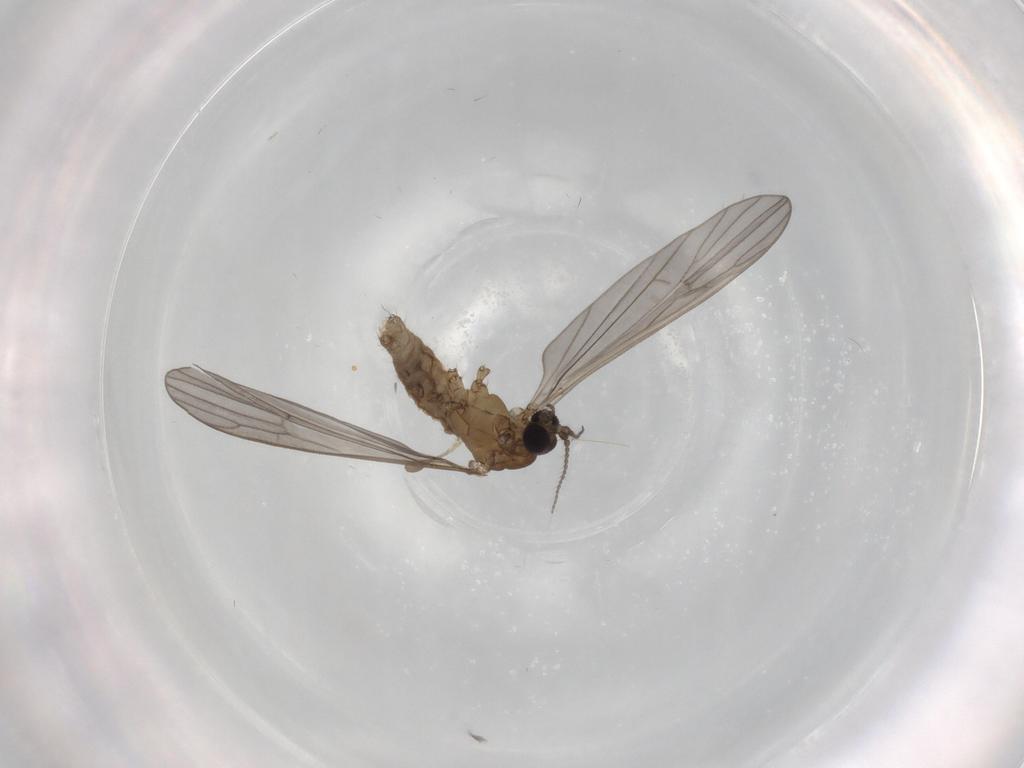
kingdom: Animalia
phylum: Arthropoda
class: Insecta
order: Diptera
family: Limoniidae
